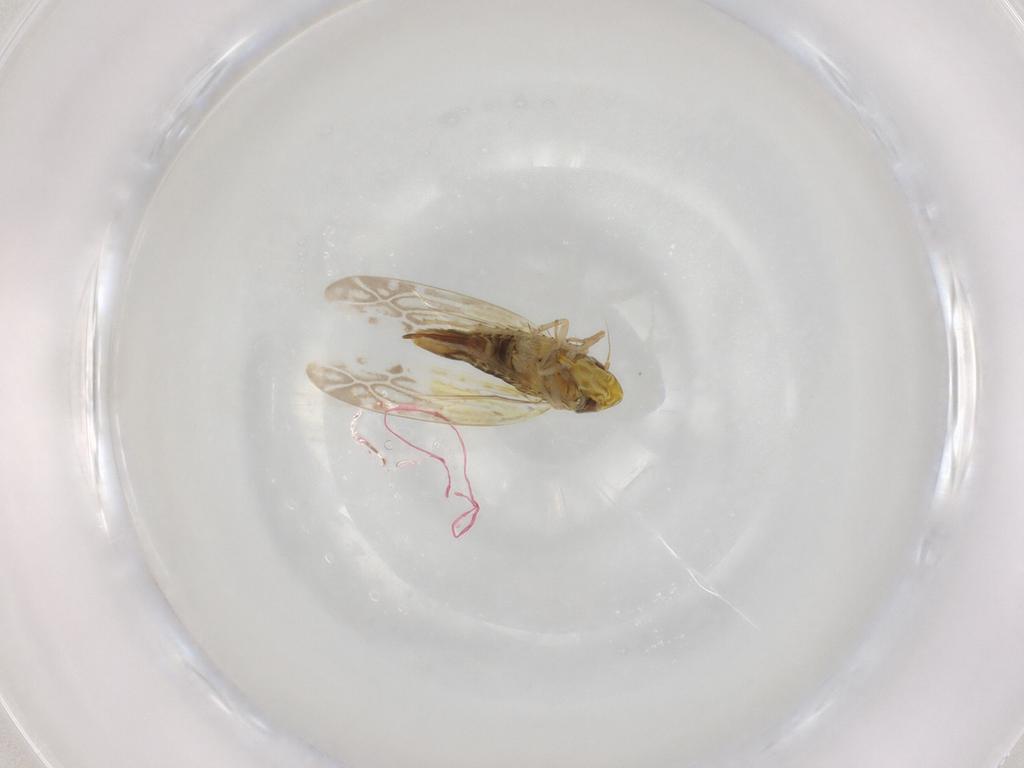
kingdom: Animalia
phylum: Arthropoda
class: Insecta
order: Hemiptera
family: Cicadellidae
